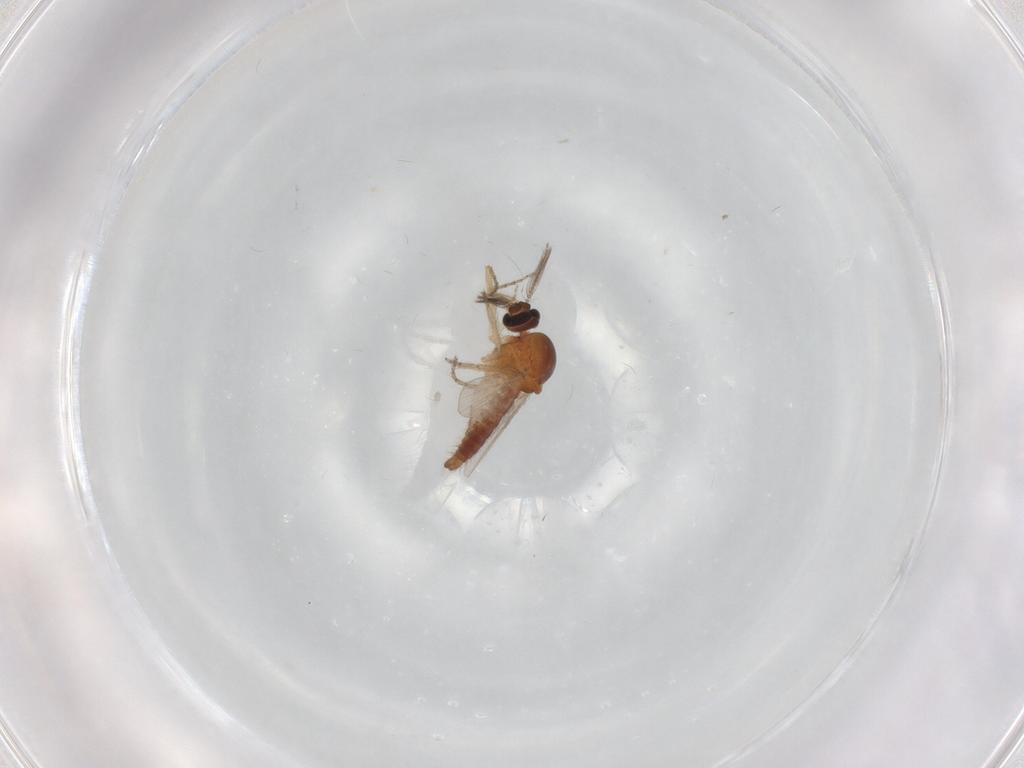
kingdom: Animalia
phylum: Arthropoda
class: Insecta
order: Diptera
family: Ceratopogonidae
